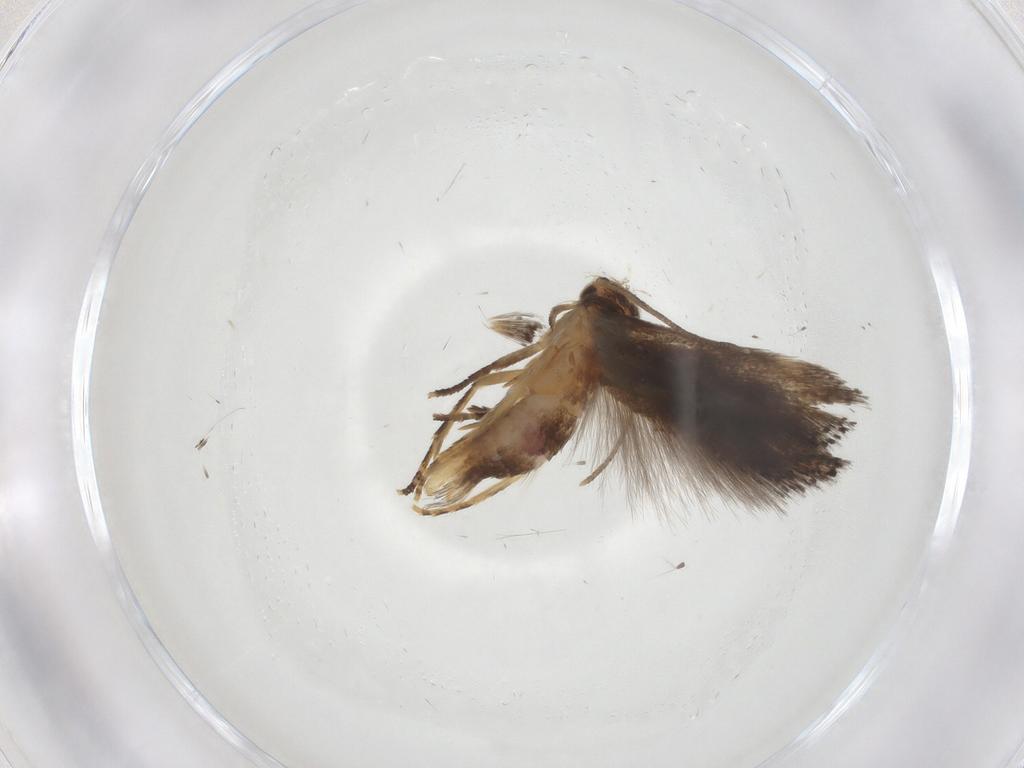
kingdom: Animalia
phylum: Arthropoda
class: Insecta
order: Lepidoptera
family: Elachistidae
